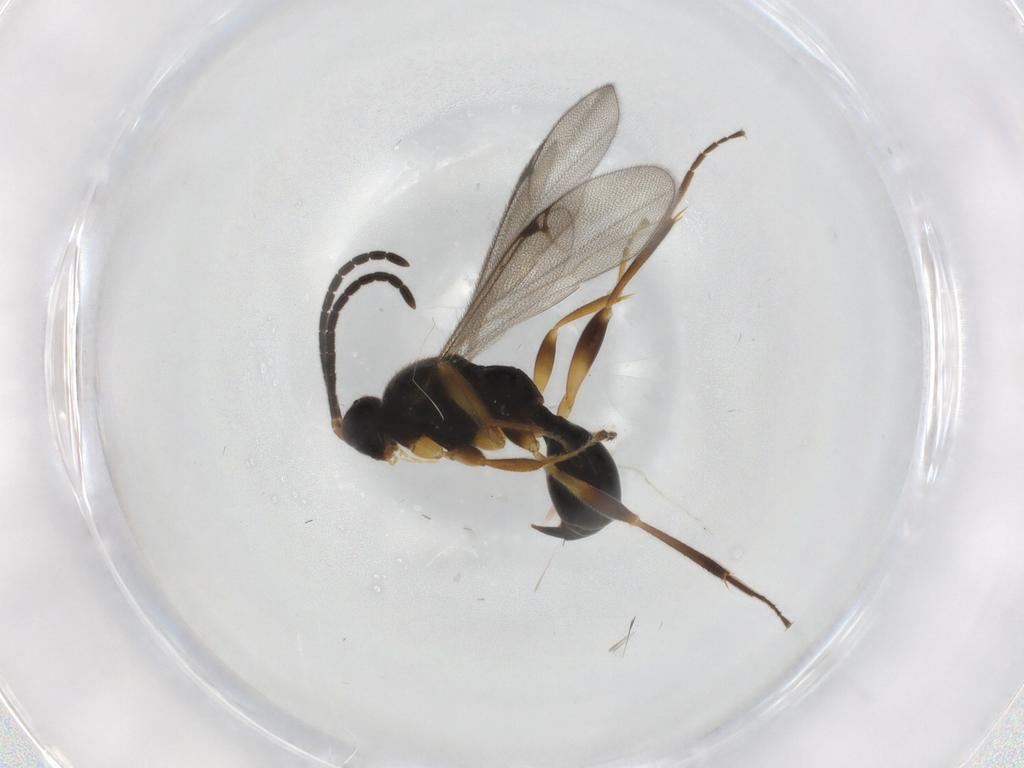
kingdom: Animalia
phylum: Arthropoda
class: Insecta
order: Hymenoptera
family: Proctotrupidae
